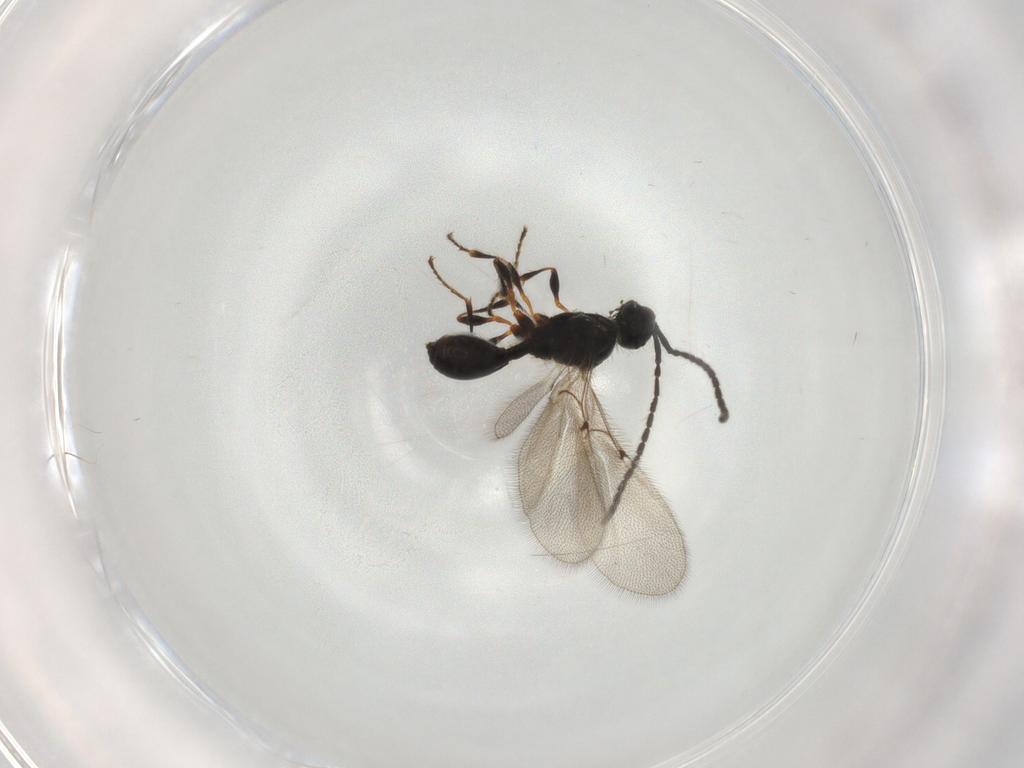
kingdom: Animalia
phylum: Arthropoda
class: Insecta
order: Hymenoptera
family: Diapriidae
